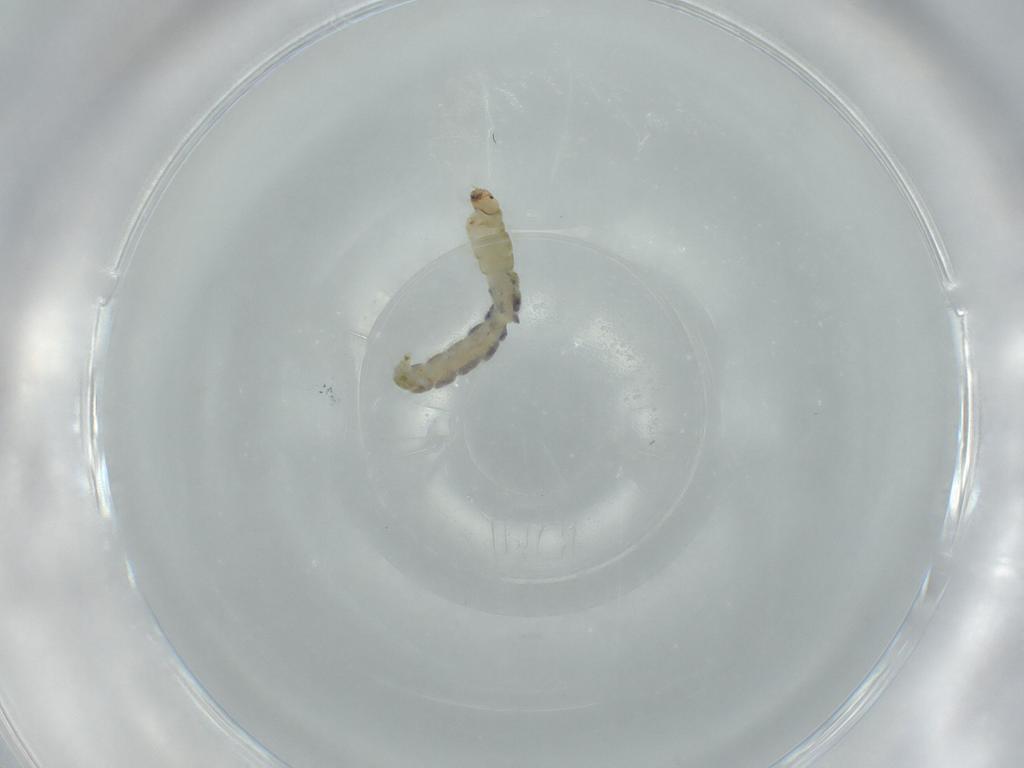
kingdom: Animalia
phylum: Arthropoda
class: Insecta
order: Diptera
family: Chironomidae
